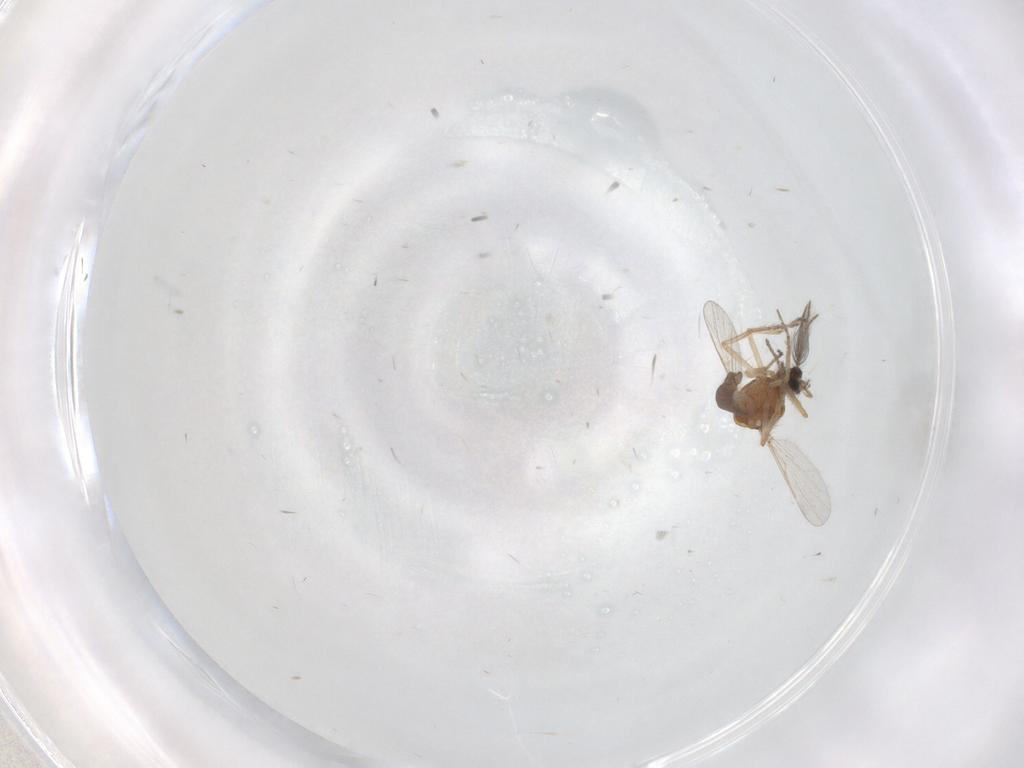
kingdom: Animalia
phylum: Arthropoda
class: Insecta
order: Diptera
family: Ceratopogonidae
